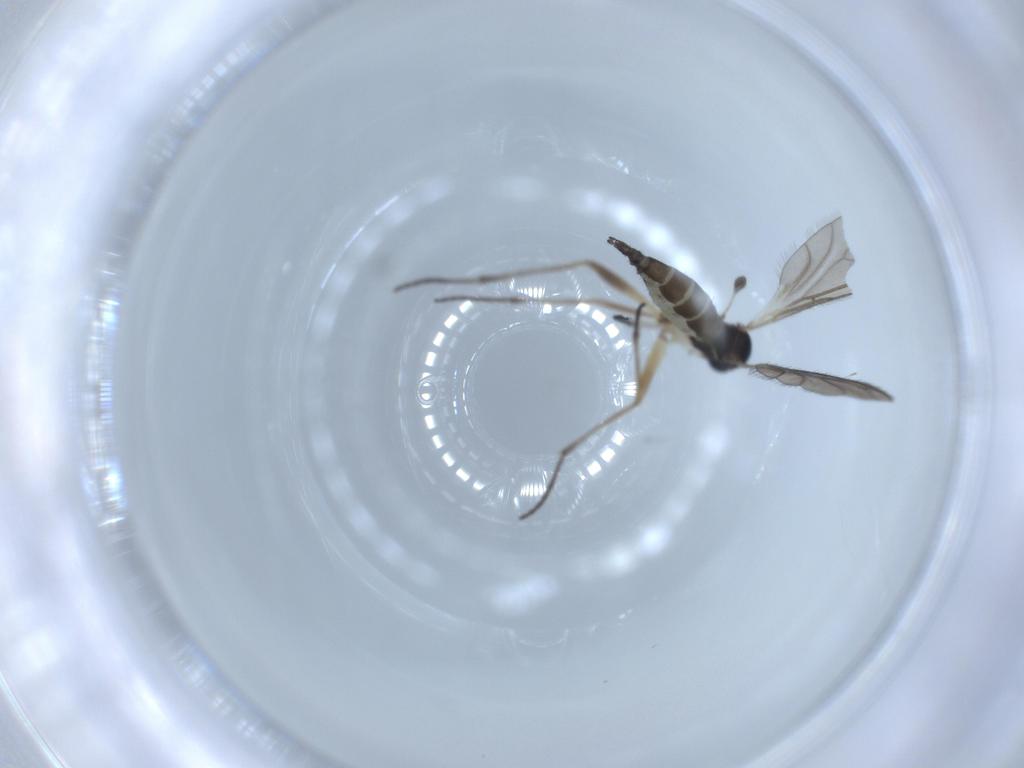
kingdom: Animalia
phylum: Arthropoda
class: Insecta
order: Diptera
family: Sciaridae
